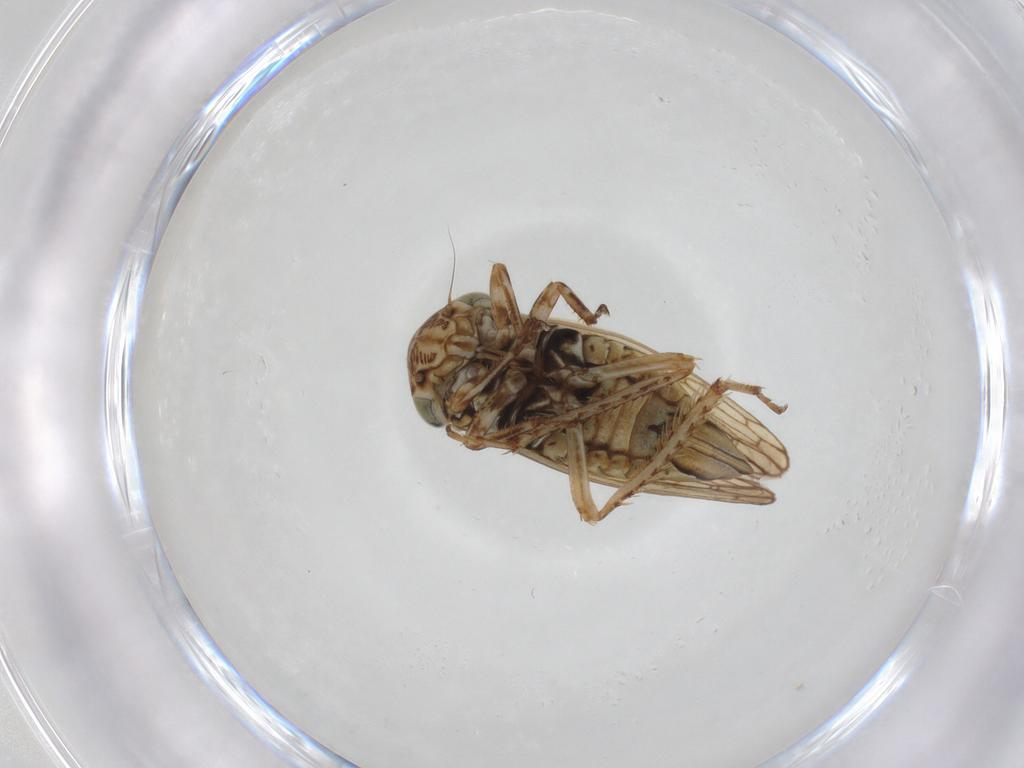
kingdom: Animalia
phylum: Arthropoda
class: Insecta
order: Hemiptera
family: Cicadellidae
